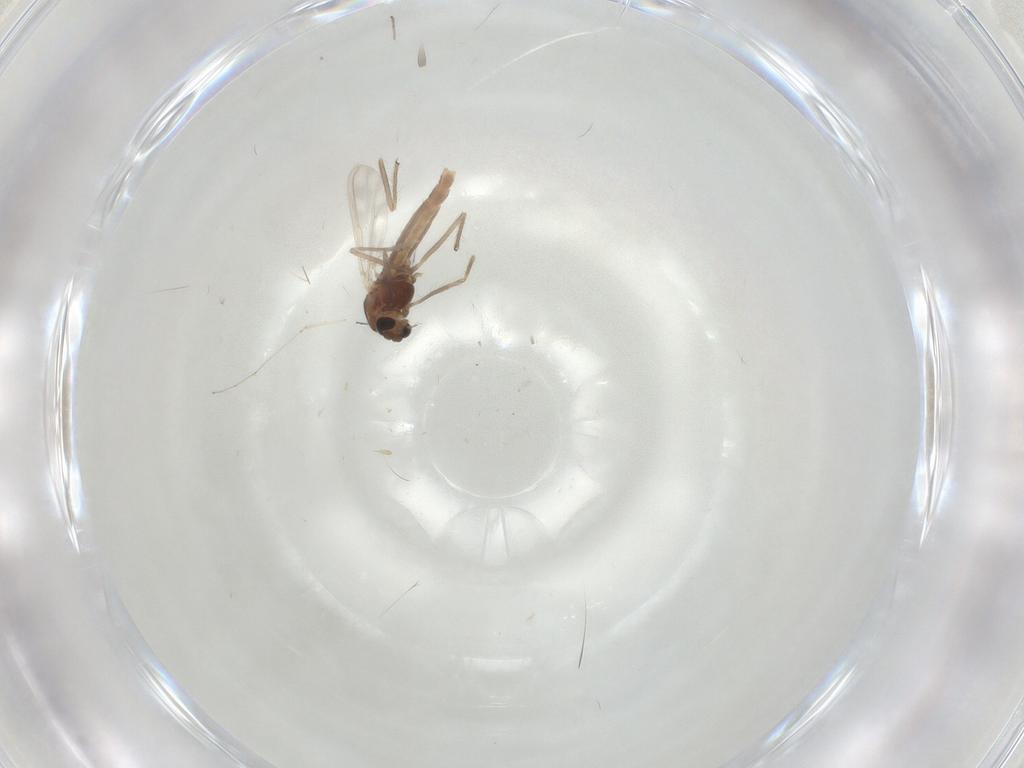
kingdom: Animalia
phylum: Arthropoda
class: Insecta
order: Diptera
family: Chironomidae
